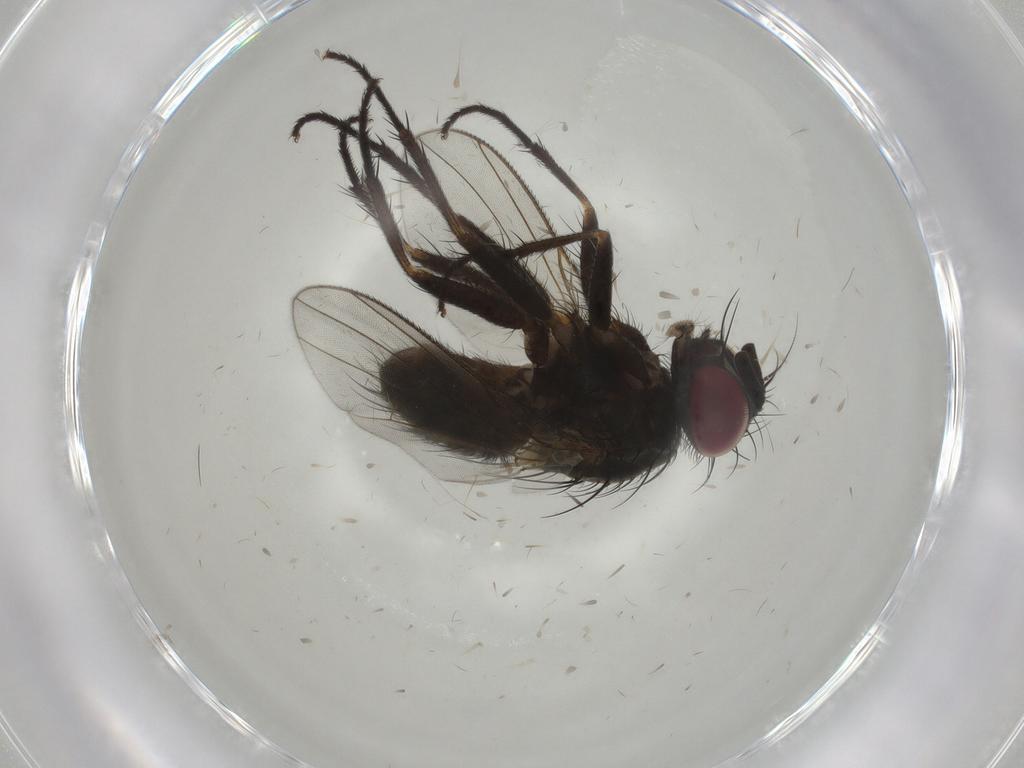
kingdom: Animalia
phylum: Arthropoda
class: Insecta
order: Diptera
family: Muscidae
